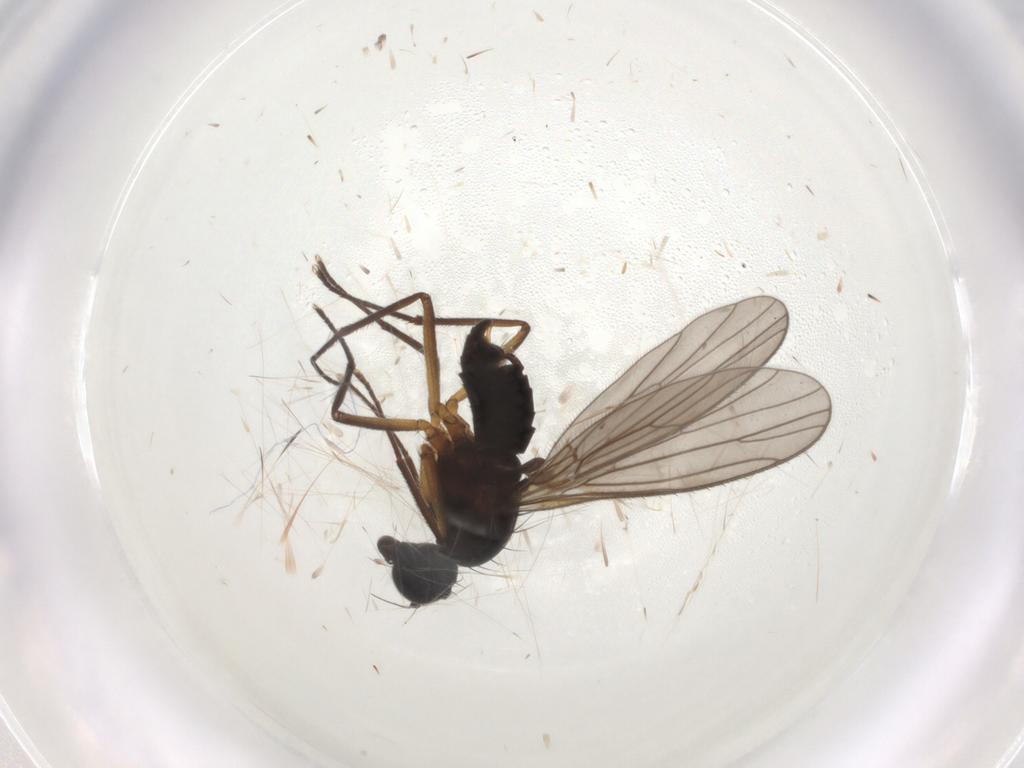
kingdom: Animalia
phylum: Arthropoda
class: Insecta
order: Diptera
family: Empididae
